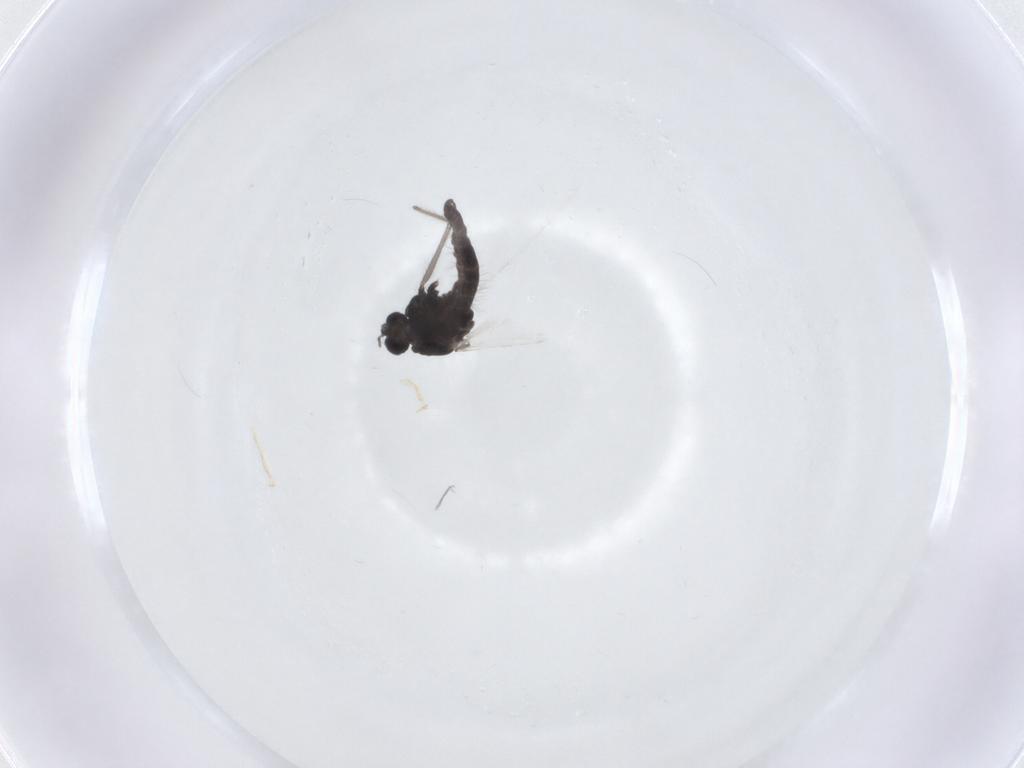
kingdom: Animalia
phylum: Arthropoda
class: Insecta
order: Diptera
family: Chironomidae
